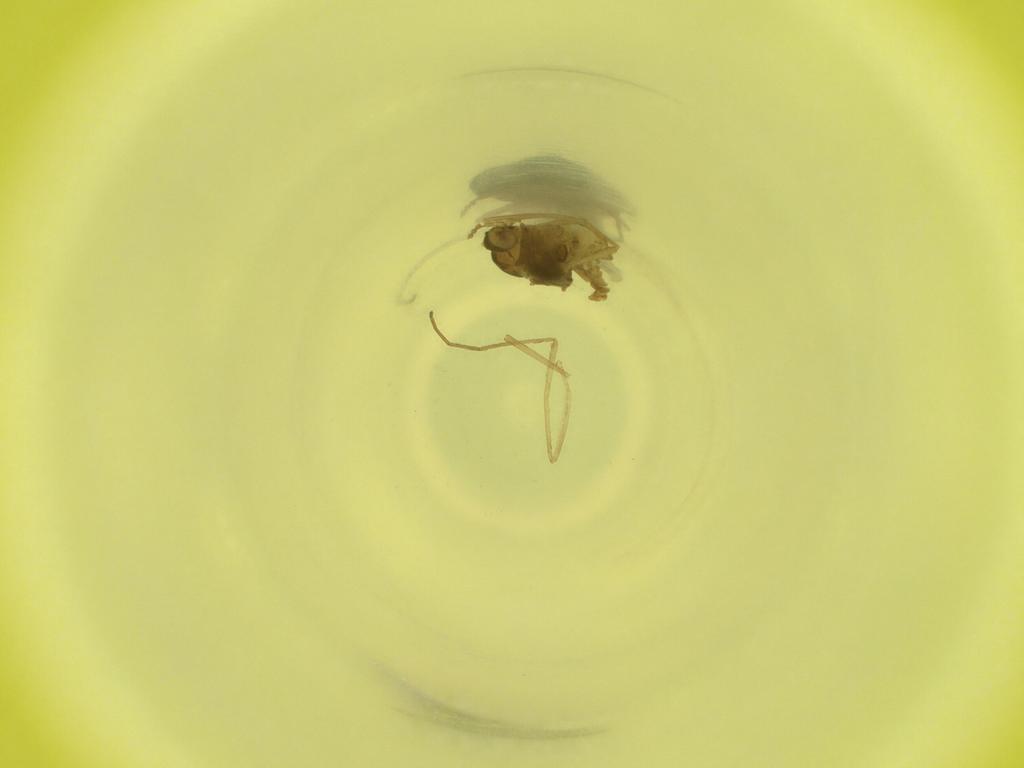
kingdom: Animalia
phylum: Arthropoda
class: Insecta
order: Diptera
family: Cecidomyiidae
